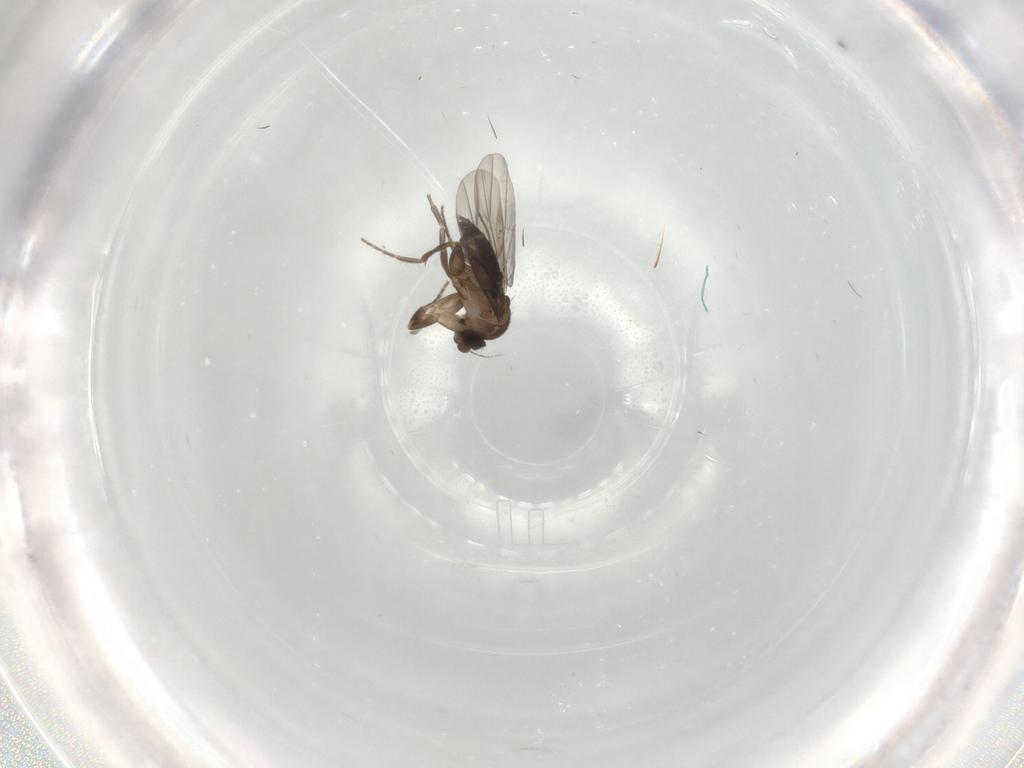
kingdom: Animalia
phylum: Arthropoda
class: Insecta
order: Diptera
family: Phoridae
